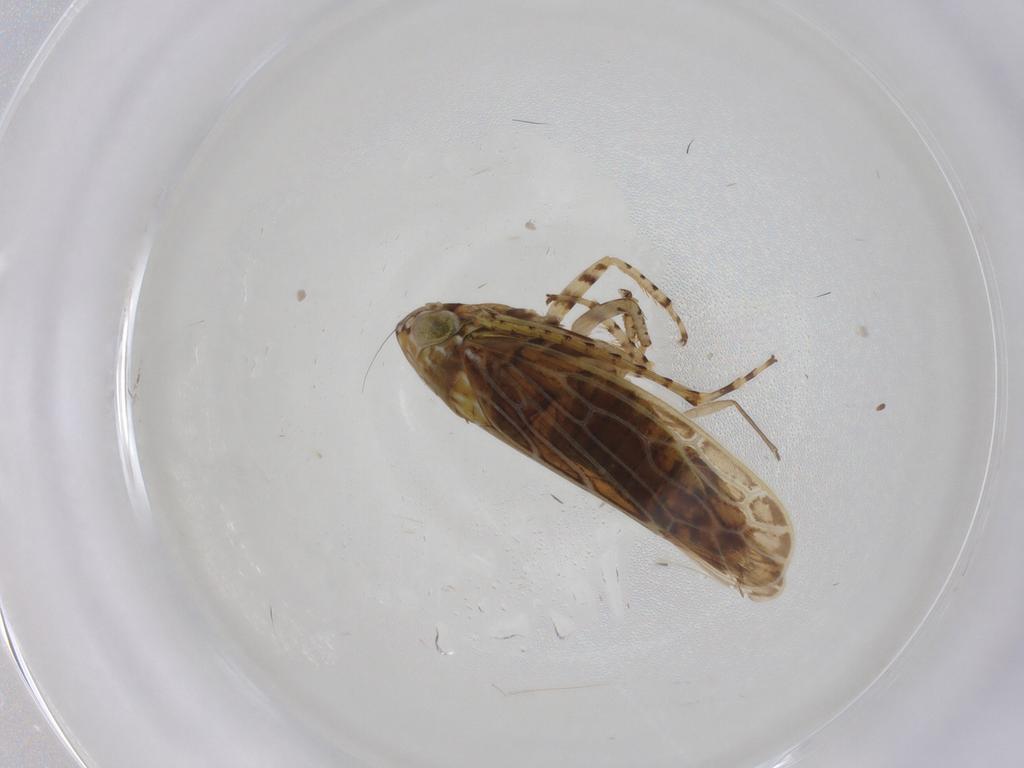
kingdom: Animalia
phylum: Arthropoda
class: Insecta
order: Hemiptera
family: Cicadellidae
